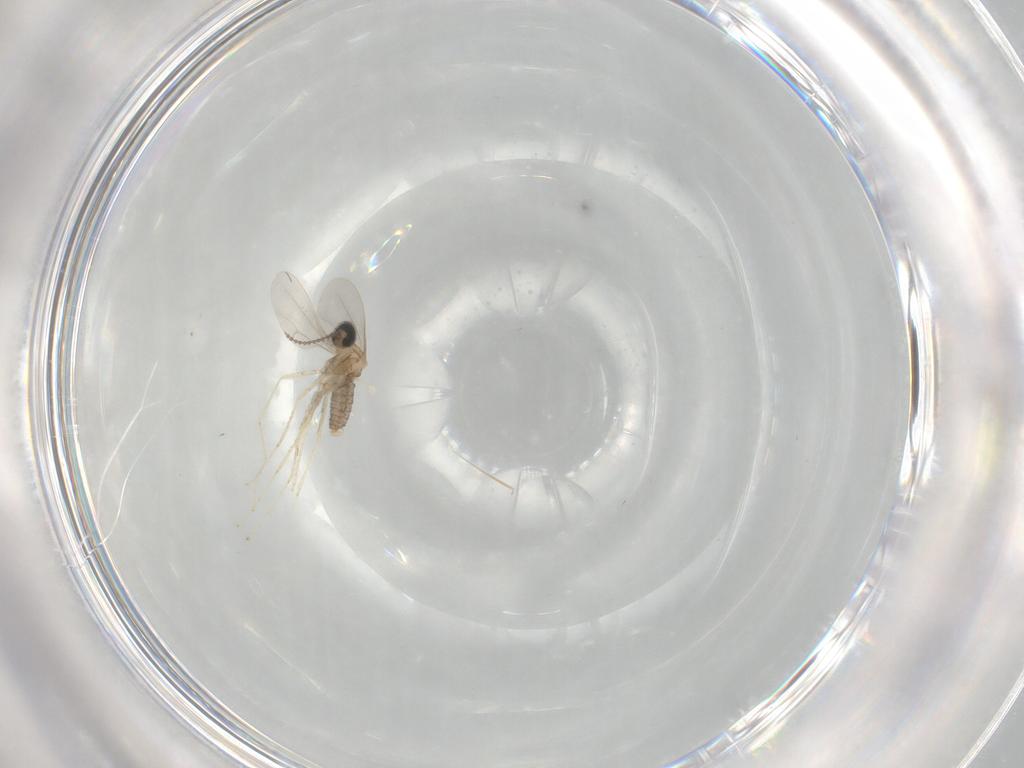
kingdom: Animalia
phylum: Arthropoda
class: Insecta
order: Diptera
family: Cecidomyiidae
